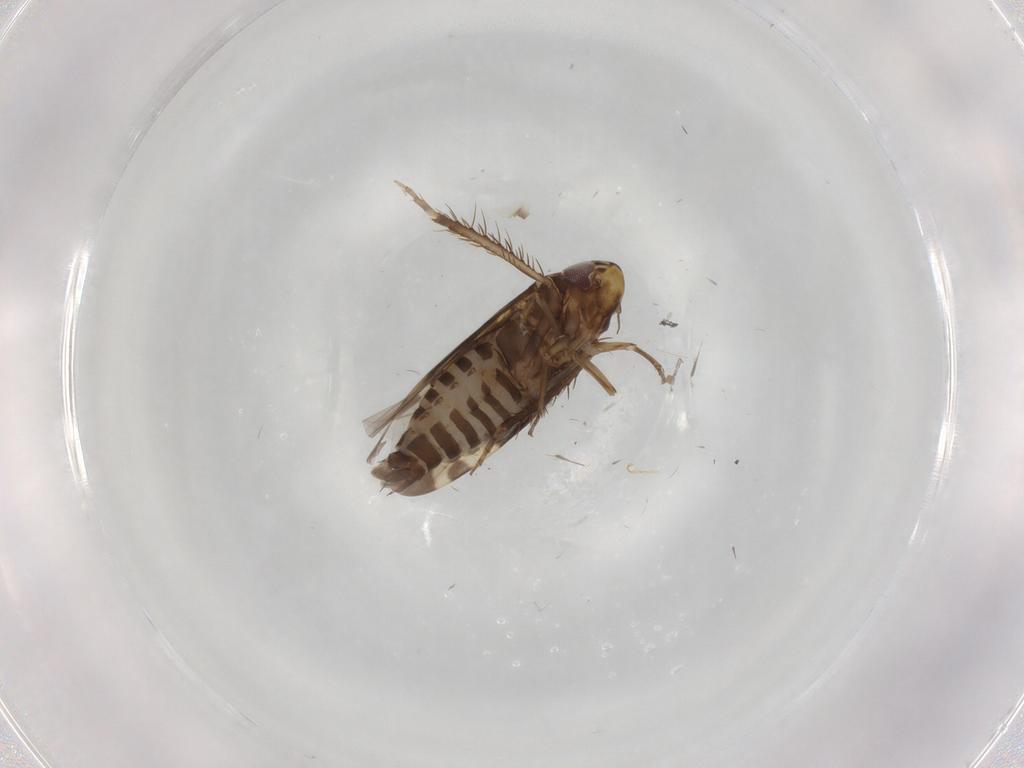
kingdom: Animalia
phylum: Arthropoda
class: Insecta
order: Hemiptera
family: Cicadellidae
